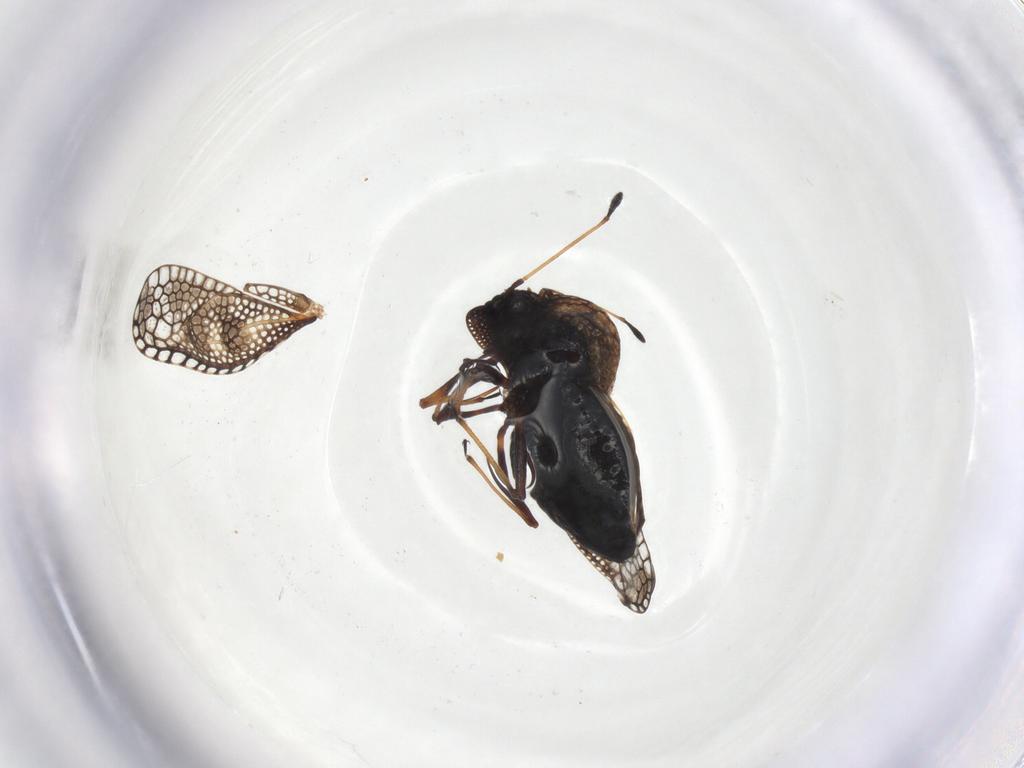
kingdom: Animalia
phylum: Arthropoda
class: Insecta
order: Hemiptera
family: Tingidae
